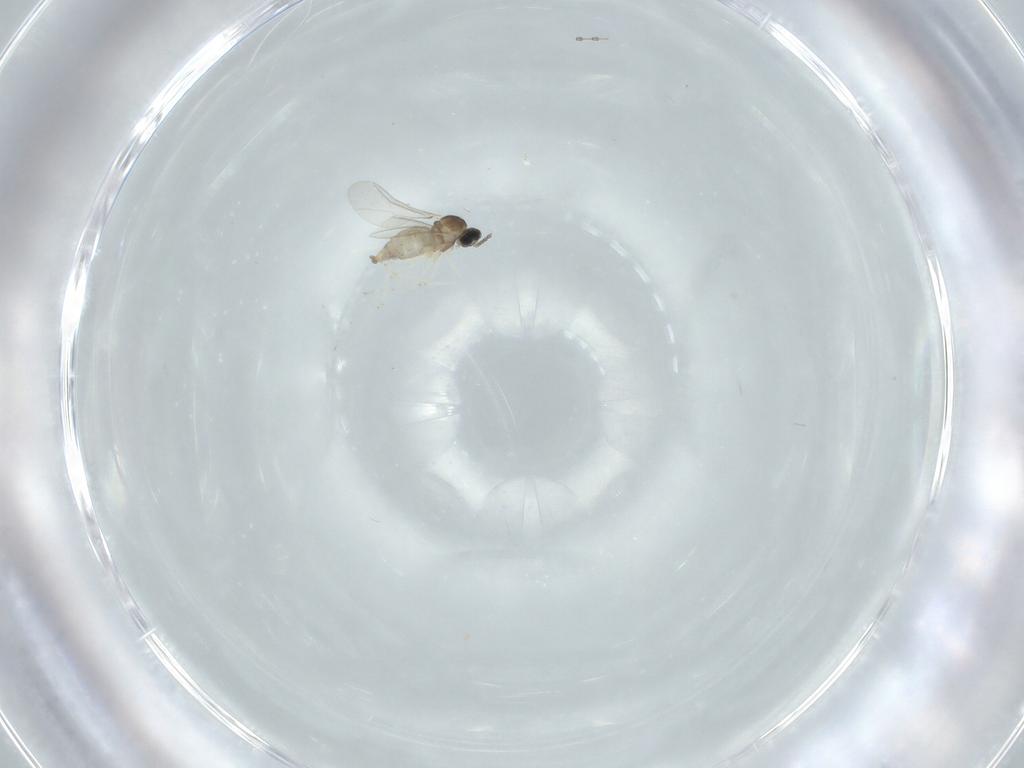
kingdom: Animalia
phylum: Arthropoda
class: Insecta
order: Diptera
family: Cecidomyiidae
